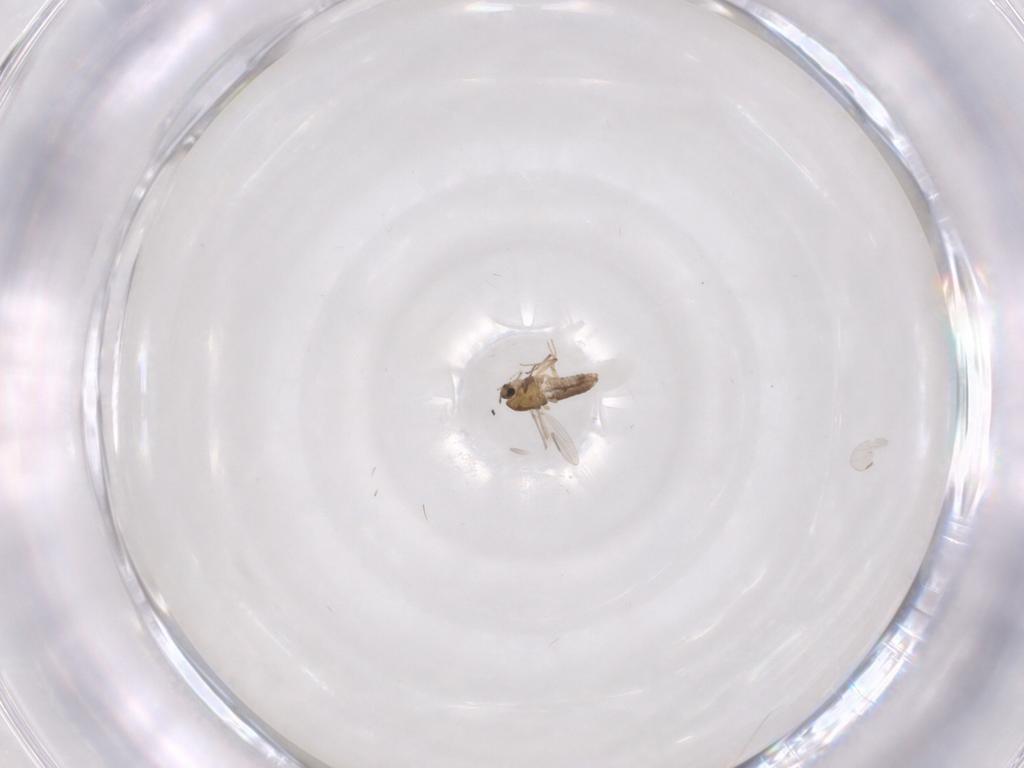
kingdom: Animalia
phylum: Arthropoda
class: Insecta
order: Diptera
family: Chironomidae
